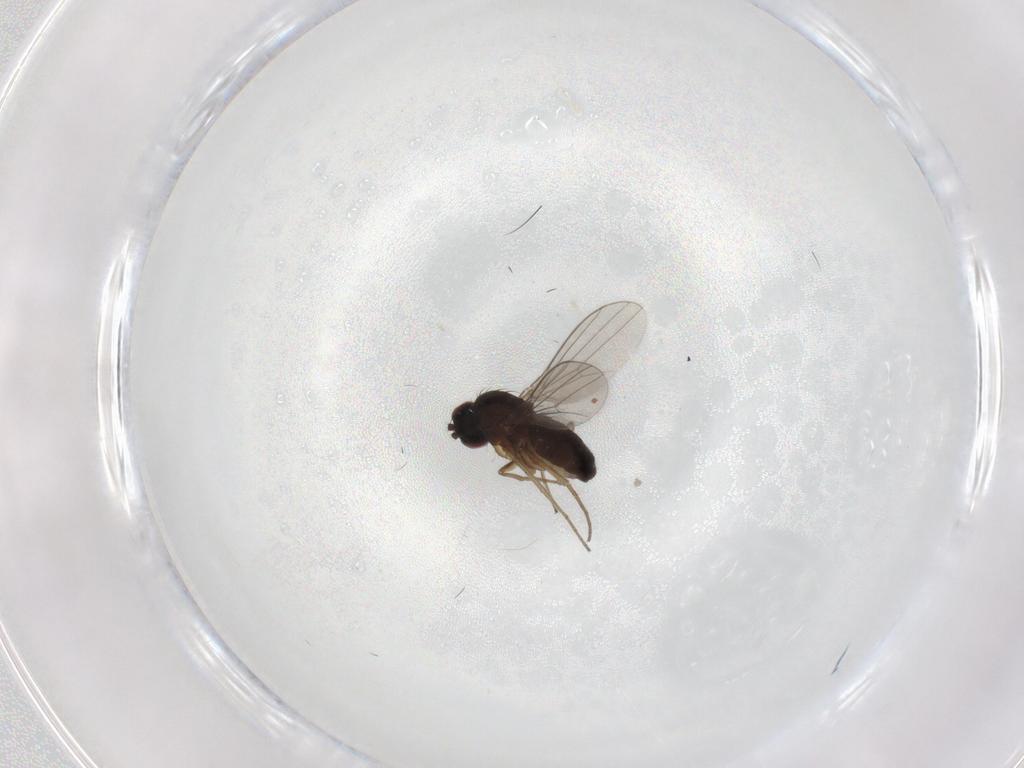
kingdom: Animalia
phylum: Arthropoda
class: Insecta
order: Diptera
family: Dolichopodidae
